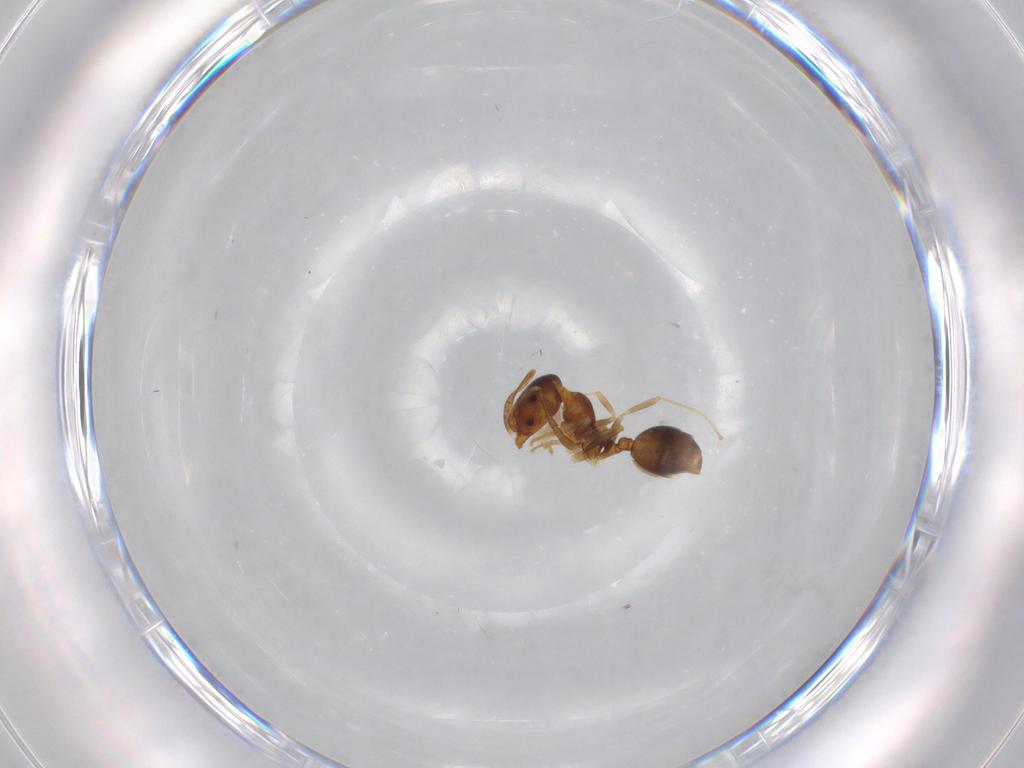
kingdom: Animalia
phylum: Arthropoda
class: Insecta
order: Hymenoptera
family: Formicidae
